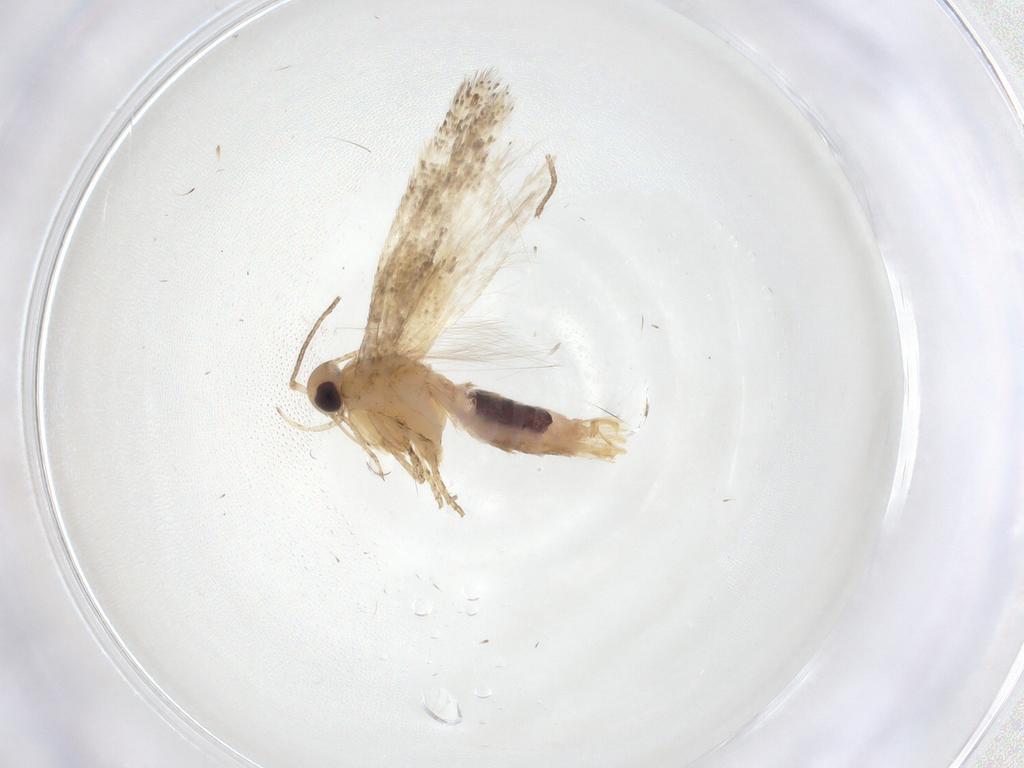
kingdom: Animalia
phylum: Arthropoda
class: Insecta
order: Lepidoptera
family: Gelechiidae
